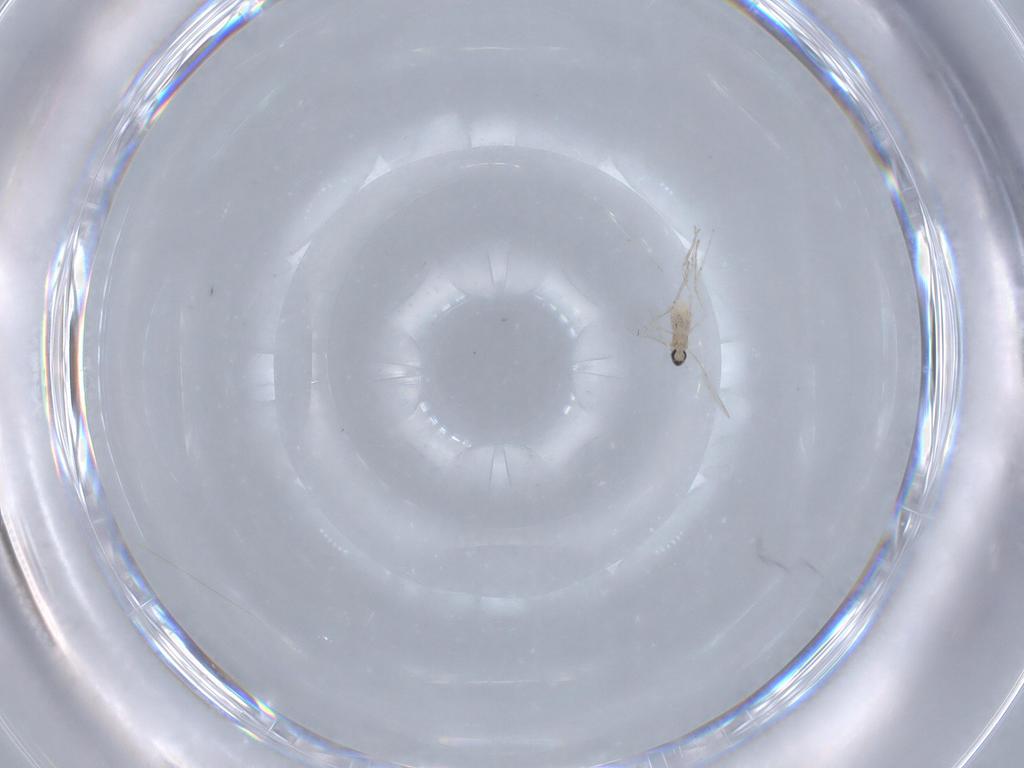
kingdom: Animalia
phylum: Arthropoda
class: Insecta
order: Diptera
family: Cecidomyiidae
